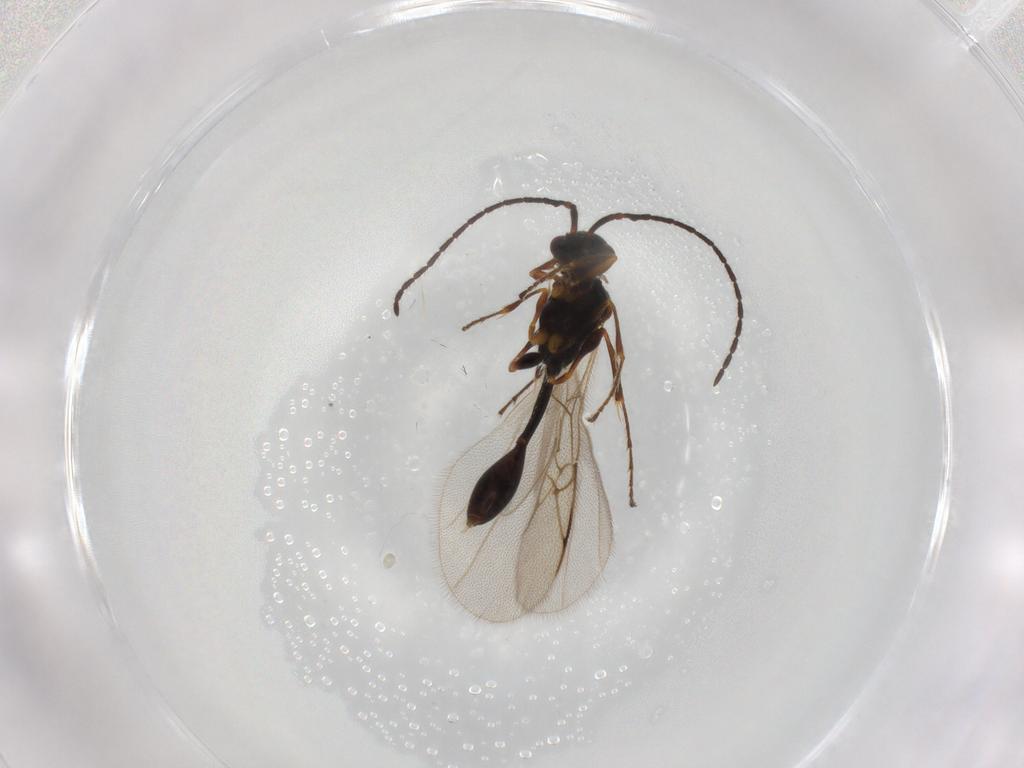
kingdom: Animalia
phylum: Arthropoda
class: Insecta
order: Hymenoptera
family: Diapriidae
